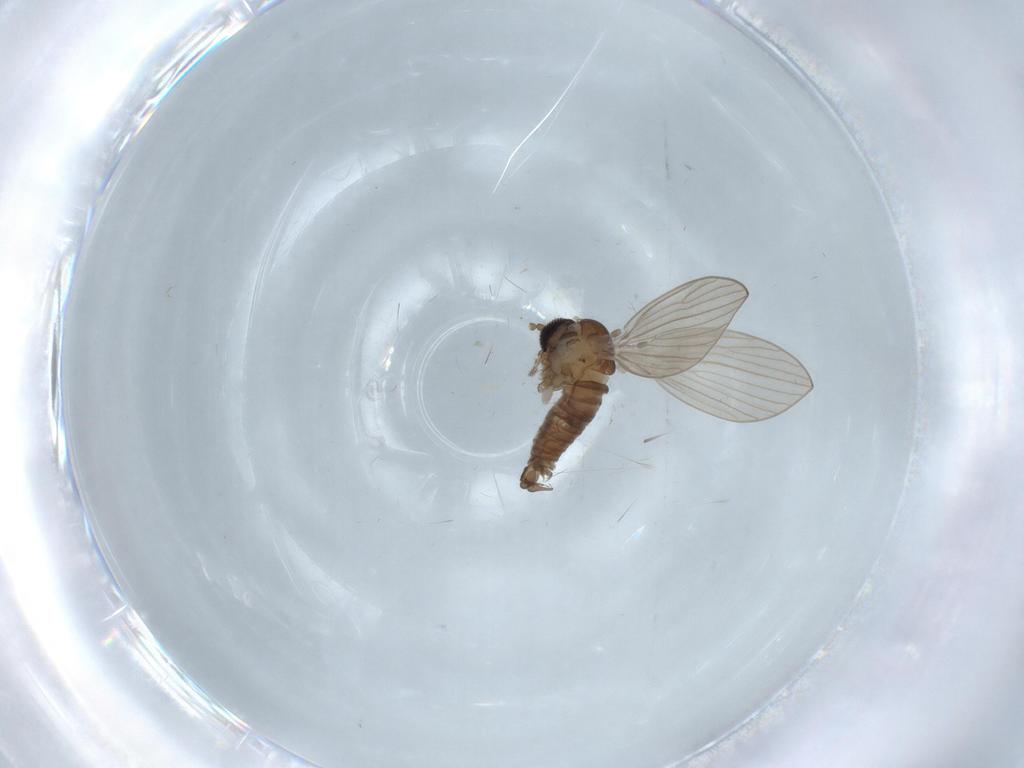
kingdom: Animalia
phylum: Arthropoda
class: Insecta
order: Diptera
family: Psychodidae
